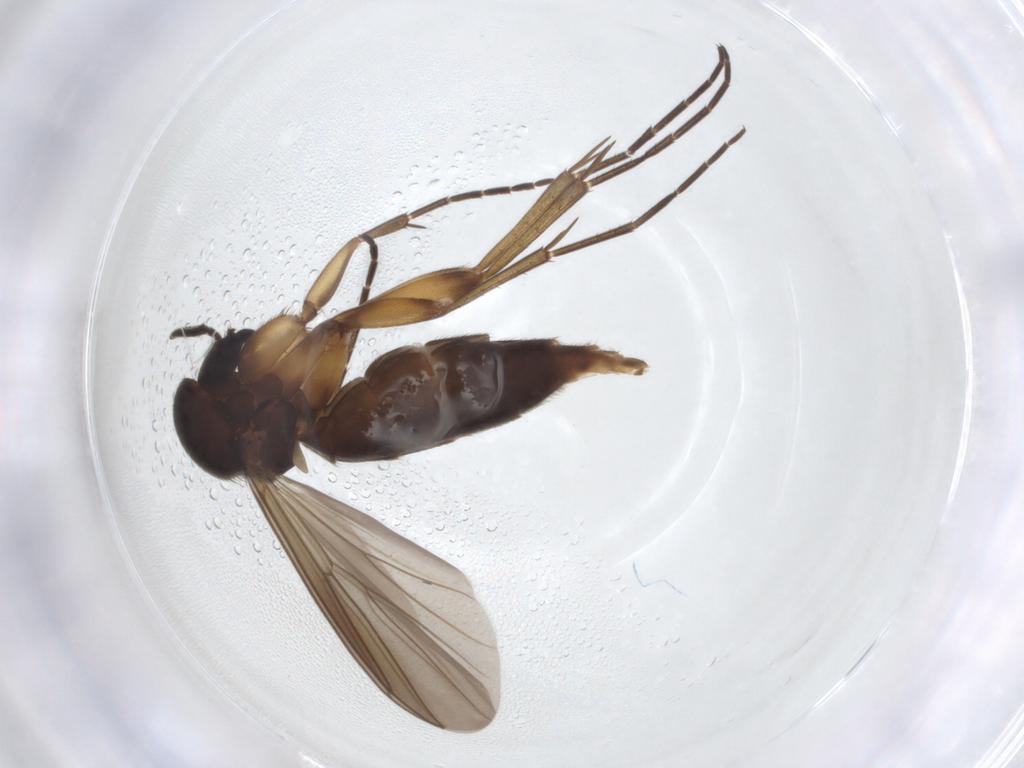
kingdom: Animalia
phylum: Arthropoda
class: Insecta
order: Diptera
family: Mycetophilidae
